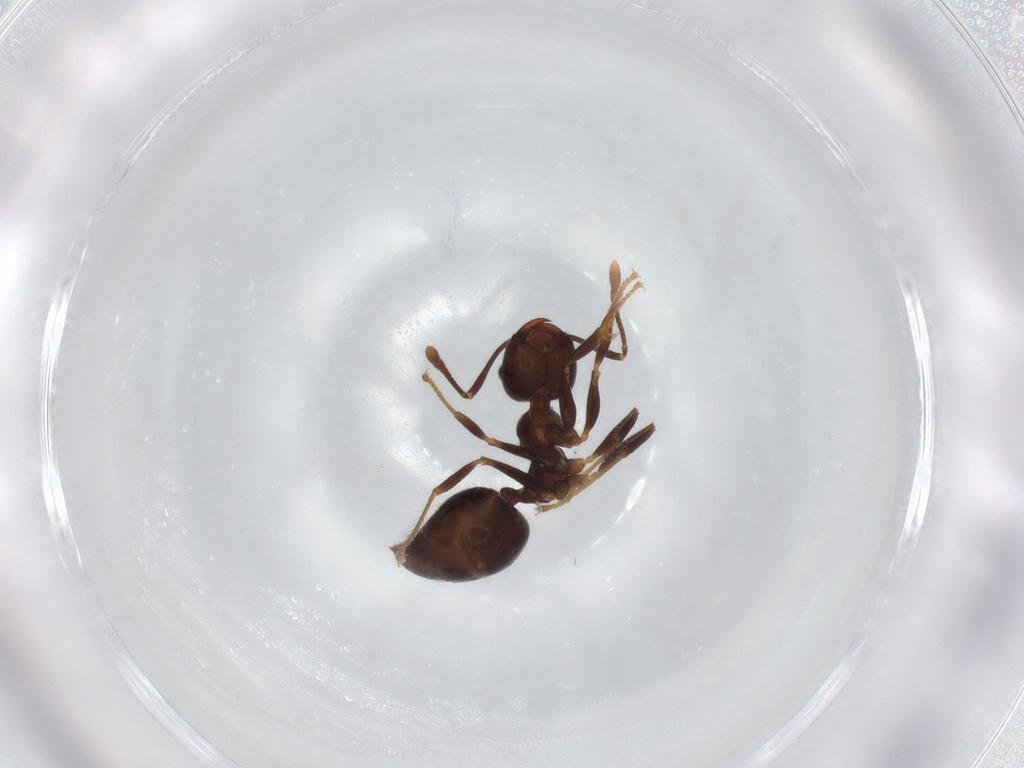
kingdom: Animalia
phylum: Arthropoda
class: Insecta
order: Hymenoptera
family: Formicidae
